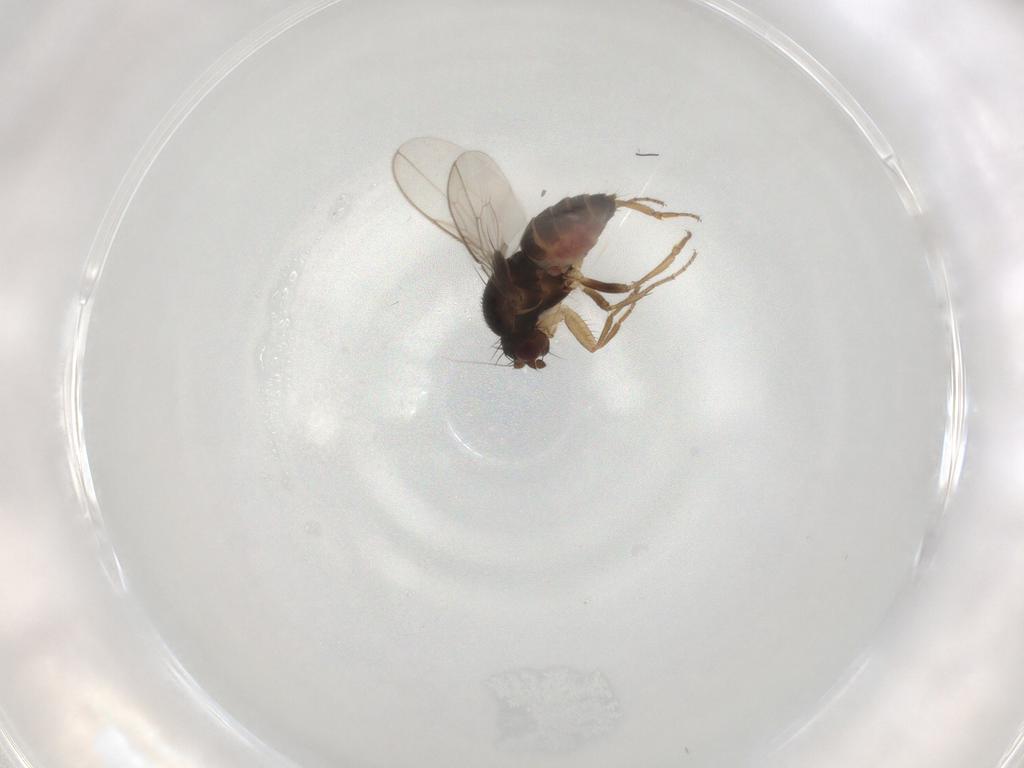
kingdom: Animalia
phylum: Arthropoda
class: Insecta
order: Diptera
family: Sphaeroceridae
